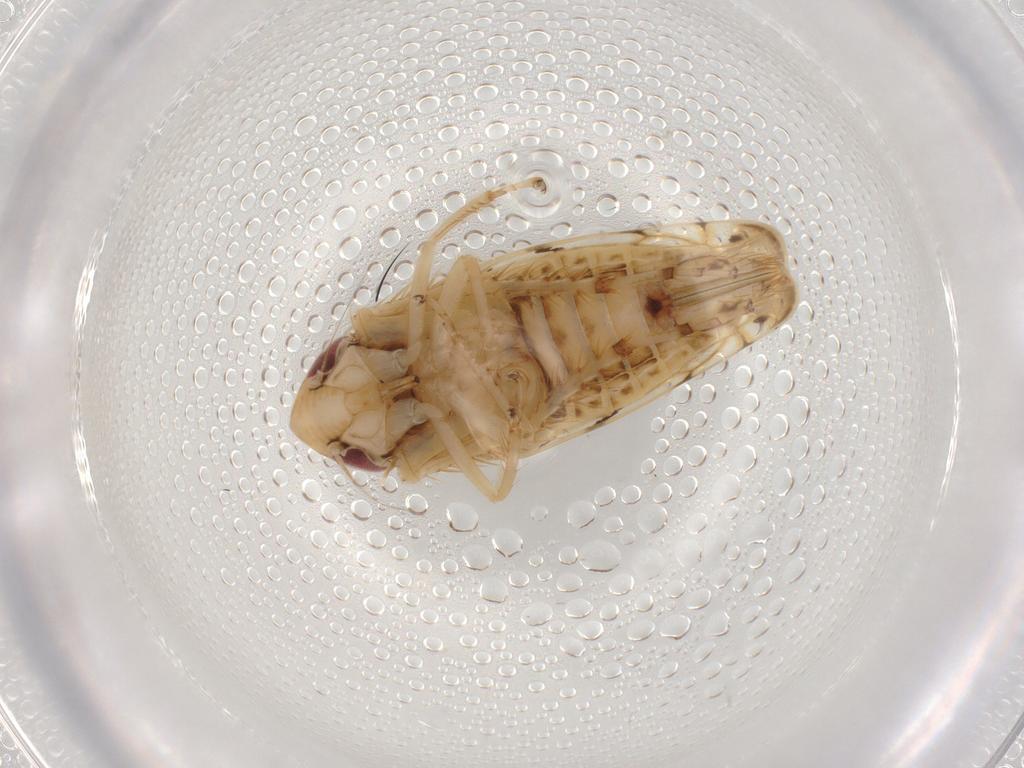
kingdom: Animalia
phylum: Arthropoda
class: Insecta
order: Hemiptera
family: Cicadellidae
